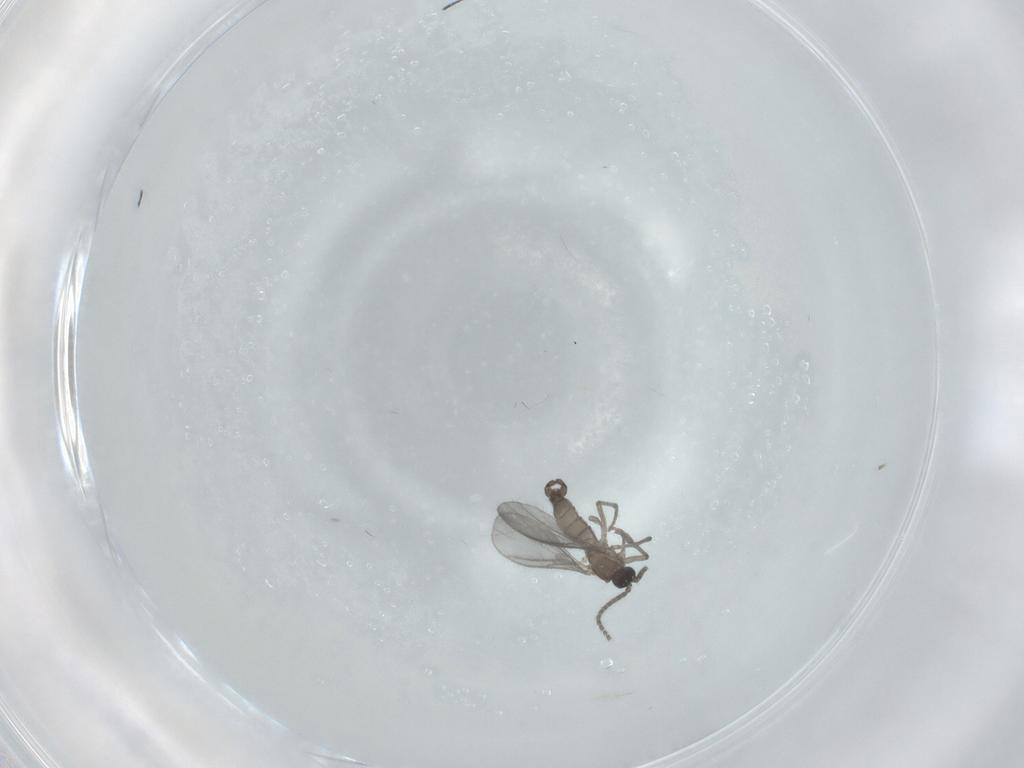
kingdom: Animalia
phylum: Arthropoda
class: Insecta
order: Diptera
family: Sciaridae
